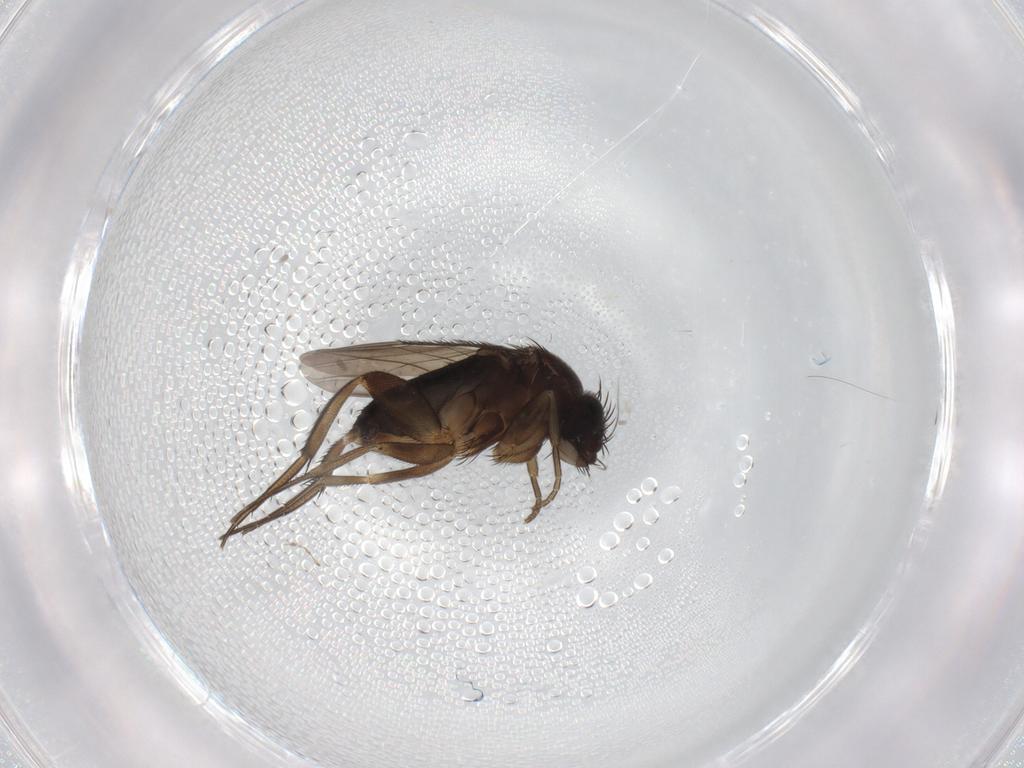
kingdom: Animalia
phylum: Arthropoda
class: Insecta
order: Diptera
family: Phoridae
